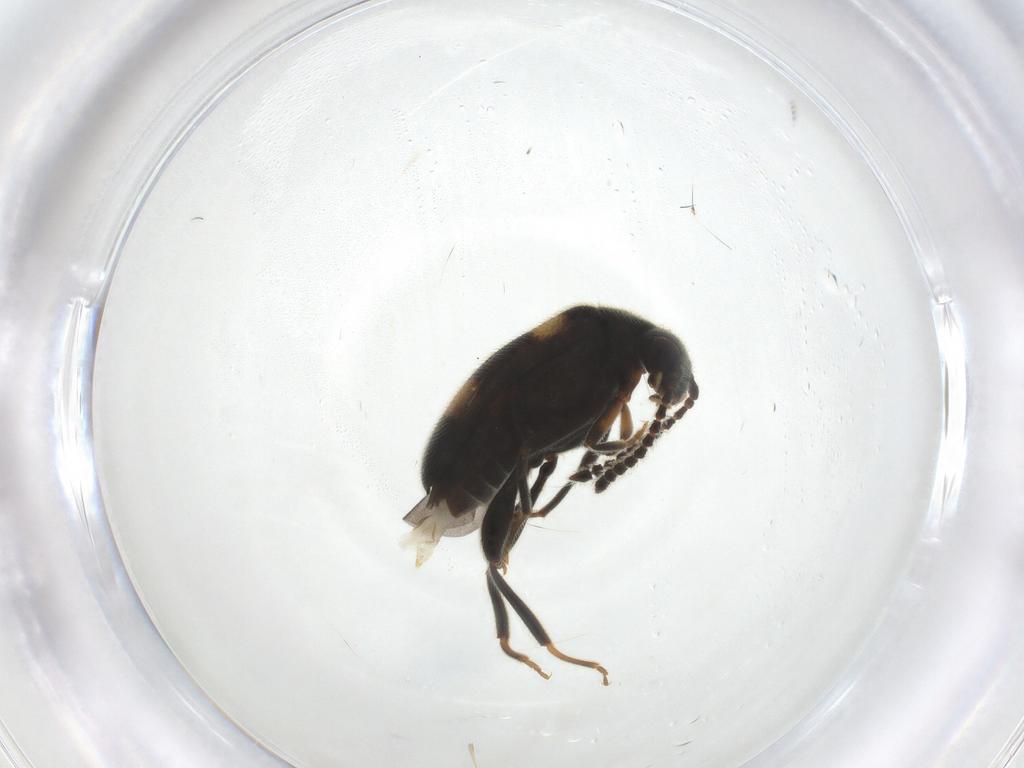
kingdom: Animalia
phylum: Arthropoda
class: Insecta
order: Coleoptera
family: Aderidae
